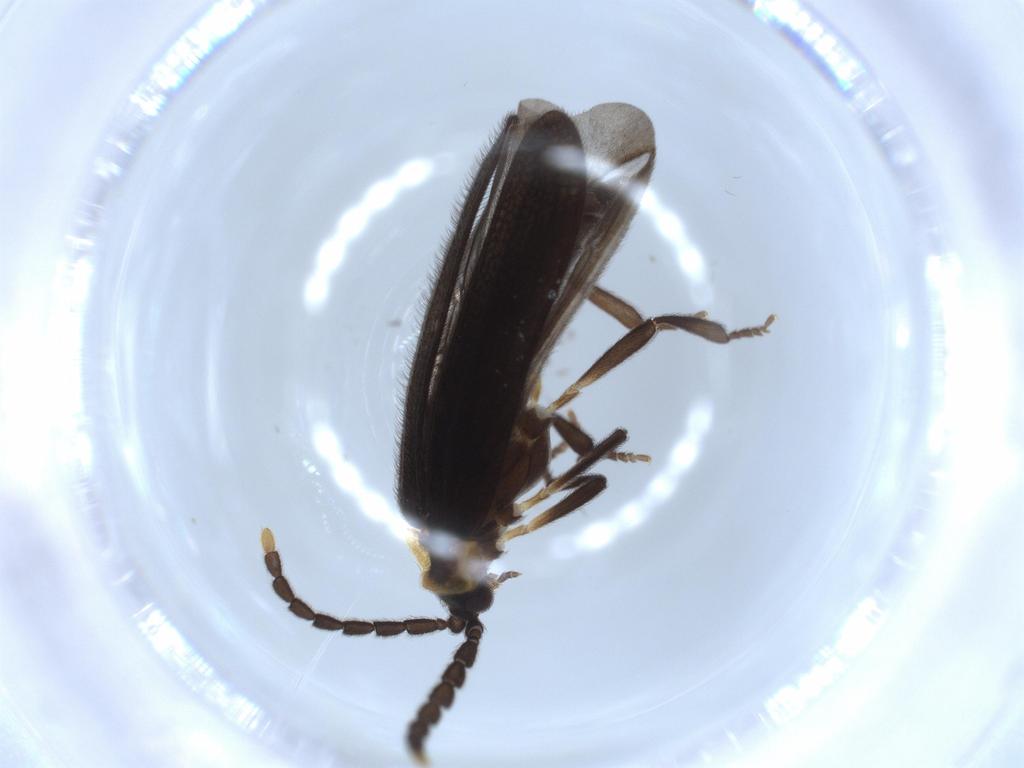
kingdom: Animalia
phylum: Arthropoda
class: Insecta
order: Coleoptera
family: Lycidae
